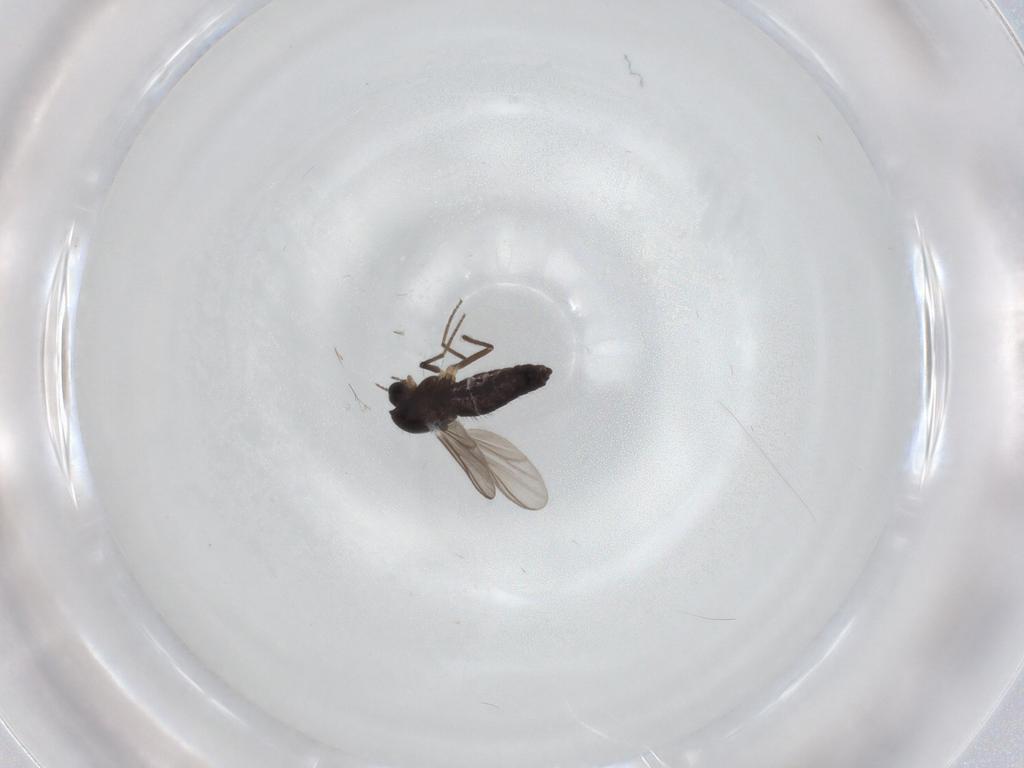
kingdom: Animalia
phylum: Arthropoda
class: Insecta
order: Diptera
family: Chironomidae
